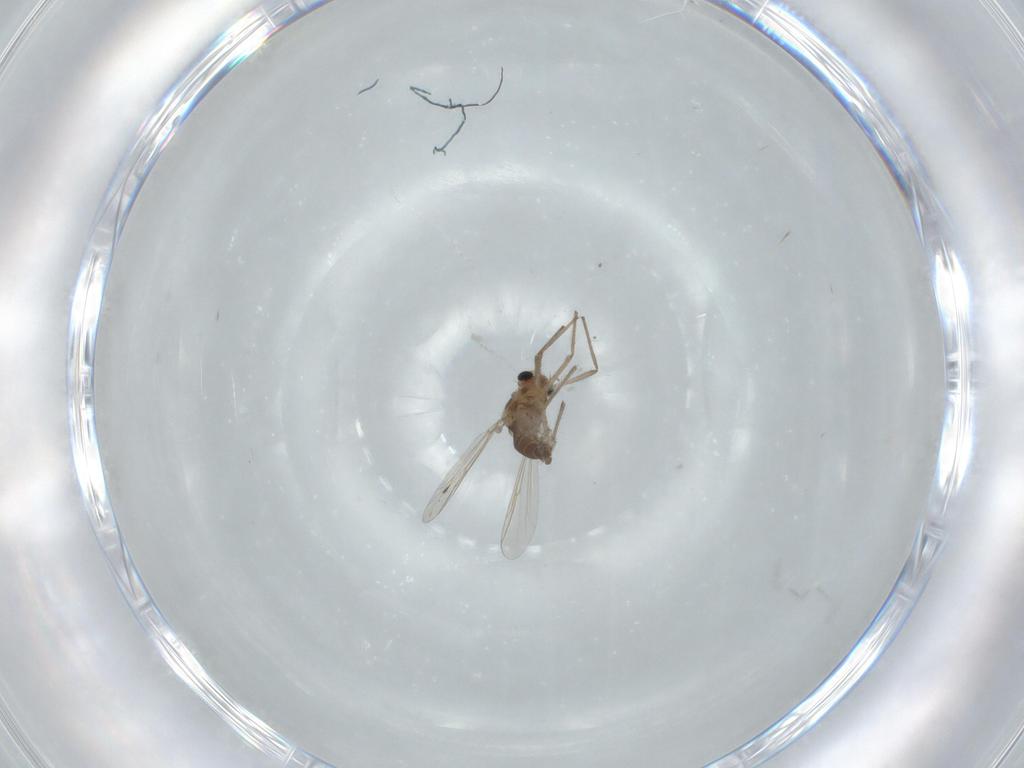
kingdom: Animalia
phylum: Arthropoda
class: Insecta
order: Diptera
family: Chironomidae
